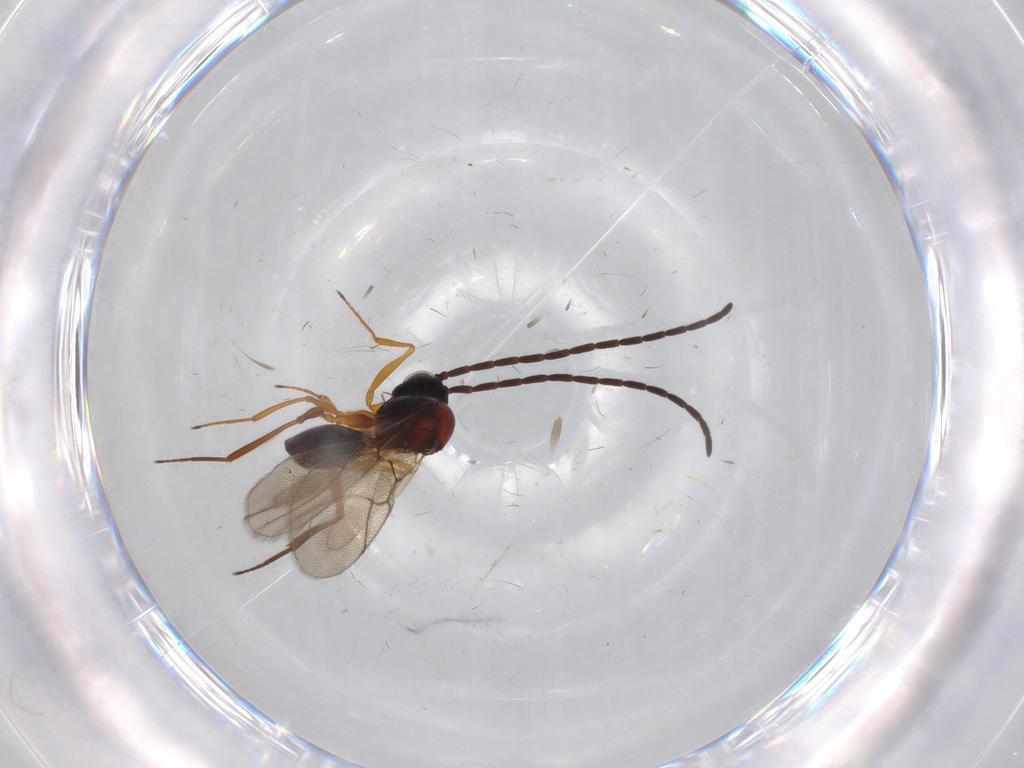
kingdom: Animalia
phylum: Arthropoda
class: Insecta
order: Hymenoptera
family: Figitidae
